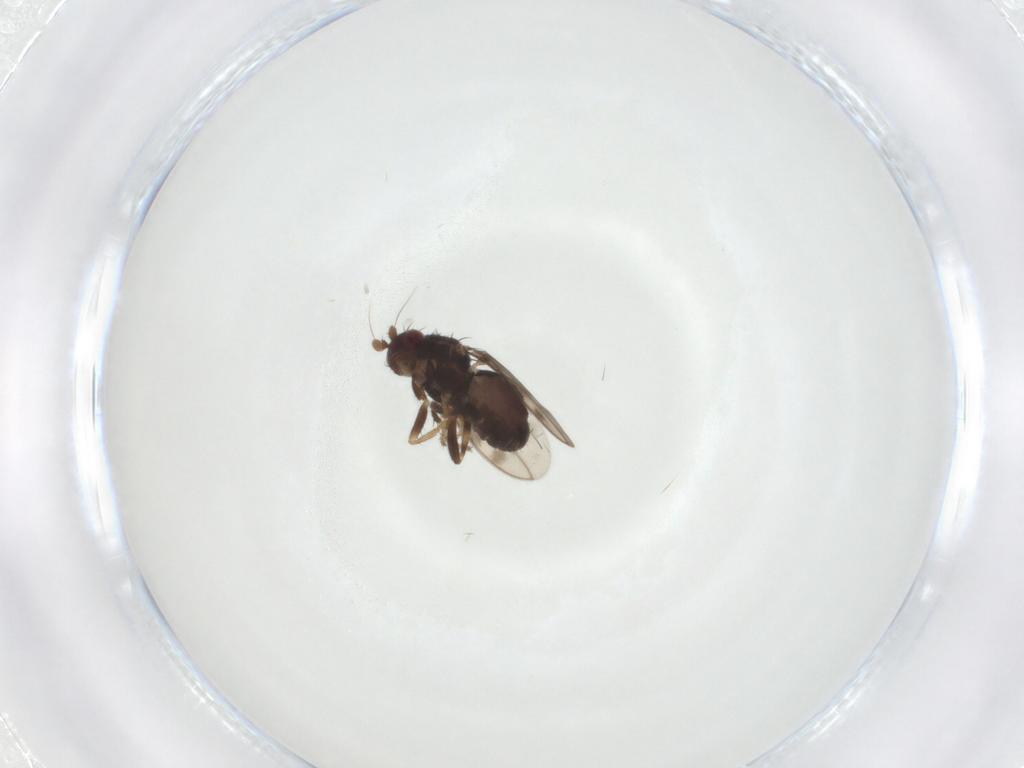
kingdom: Animalia
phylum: Arthropoda
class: Insecta
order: Diptera
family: Sphaeroceridae
